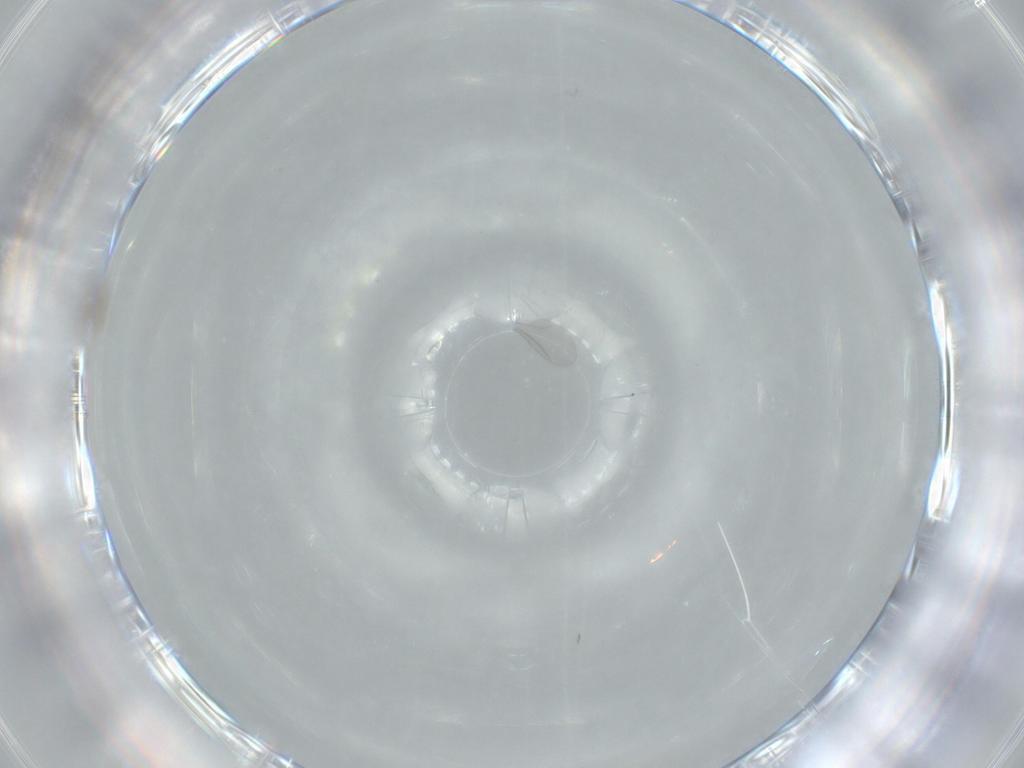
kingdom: Animalia
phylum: Arthropoda
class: Insecta
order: Diptera
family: Cecidomyiidae
